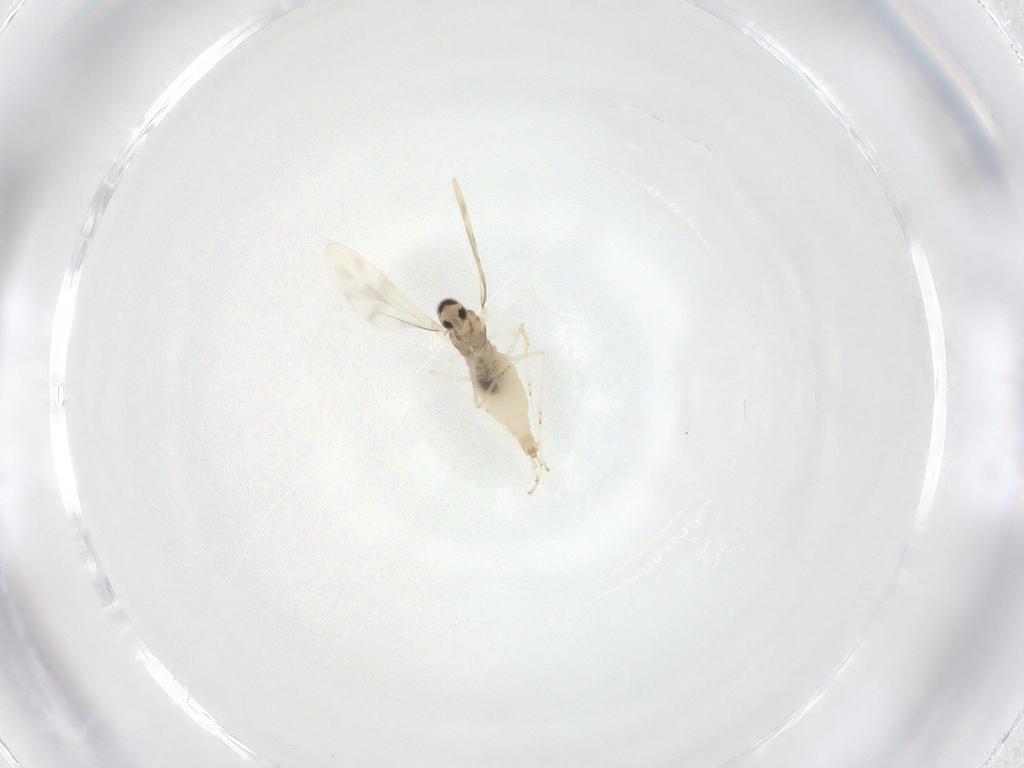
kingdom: Animalia
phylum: Arthropoda
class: Insecta
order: Diptera
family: Cecidomyiidae
